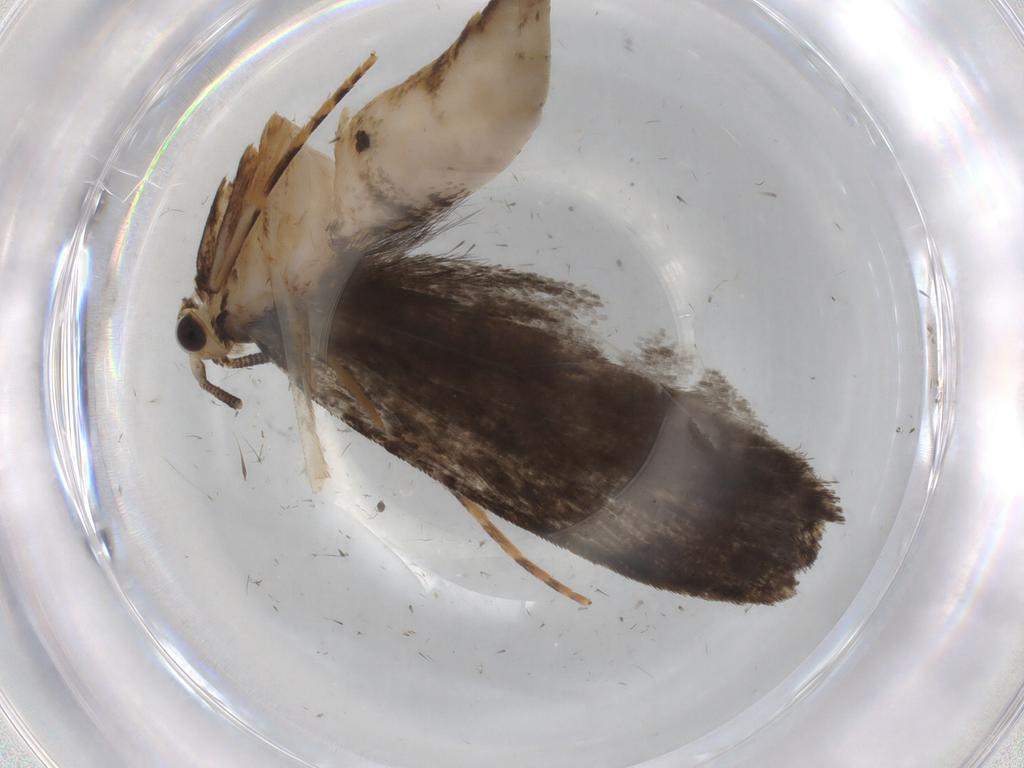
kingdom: Animalia
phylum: Arthropoda
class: Insecta
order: Lepidoptera
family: Tineidae
